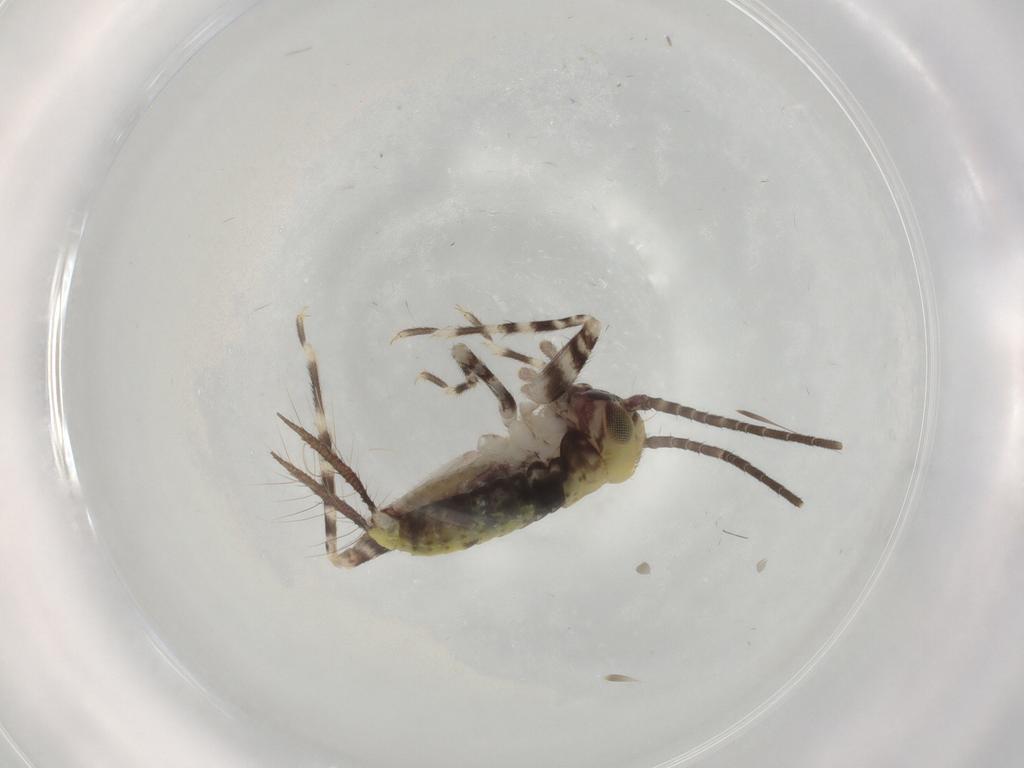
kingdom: Animalia
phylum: Arthropoda
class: Insecta
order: Orthoptera
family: Gryllidae
